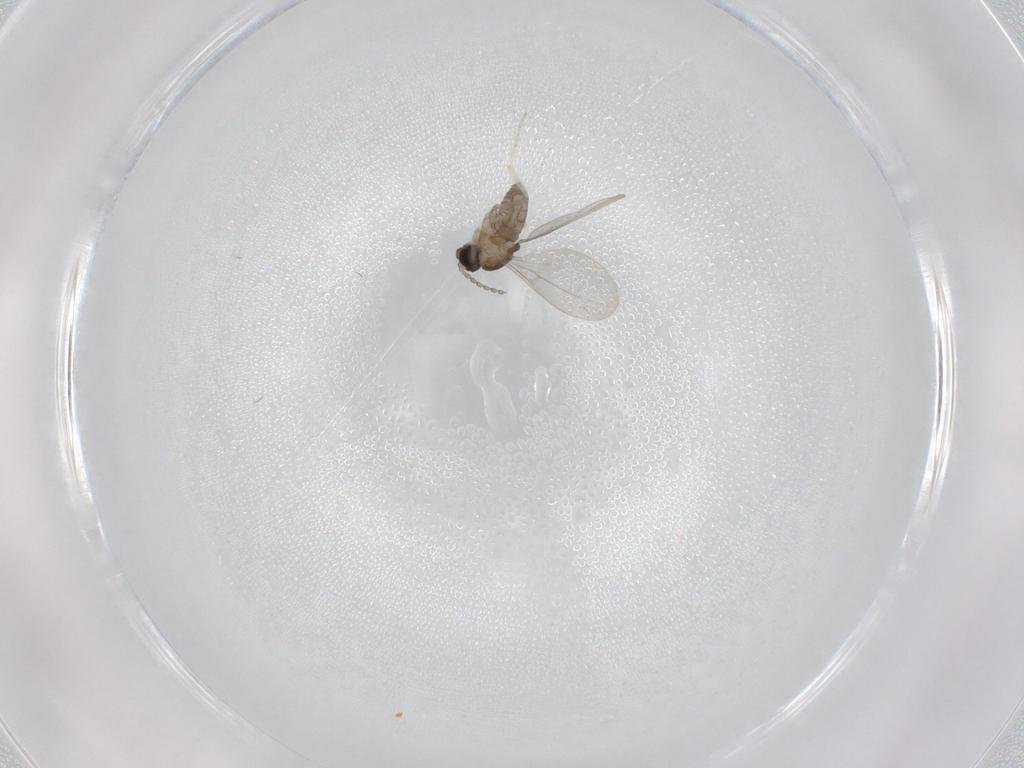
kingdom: Animalia
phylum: Arthropoda
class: Insecta
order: Diptera
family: Cecidomyiidae
